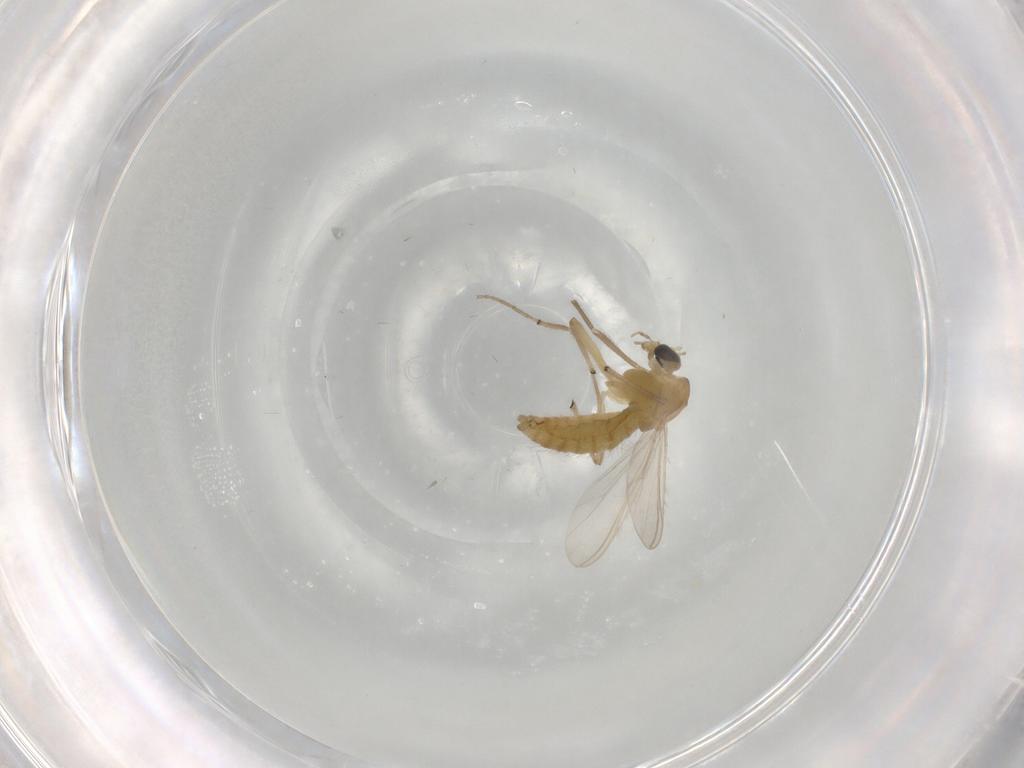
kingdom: Animalia
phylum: Arthropoda
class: Insecta
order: Diptera
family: Chironomidae
